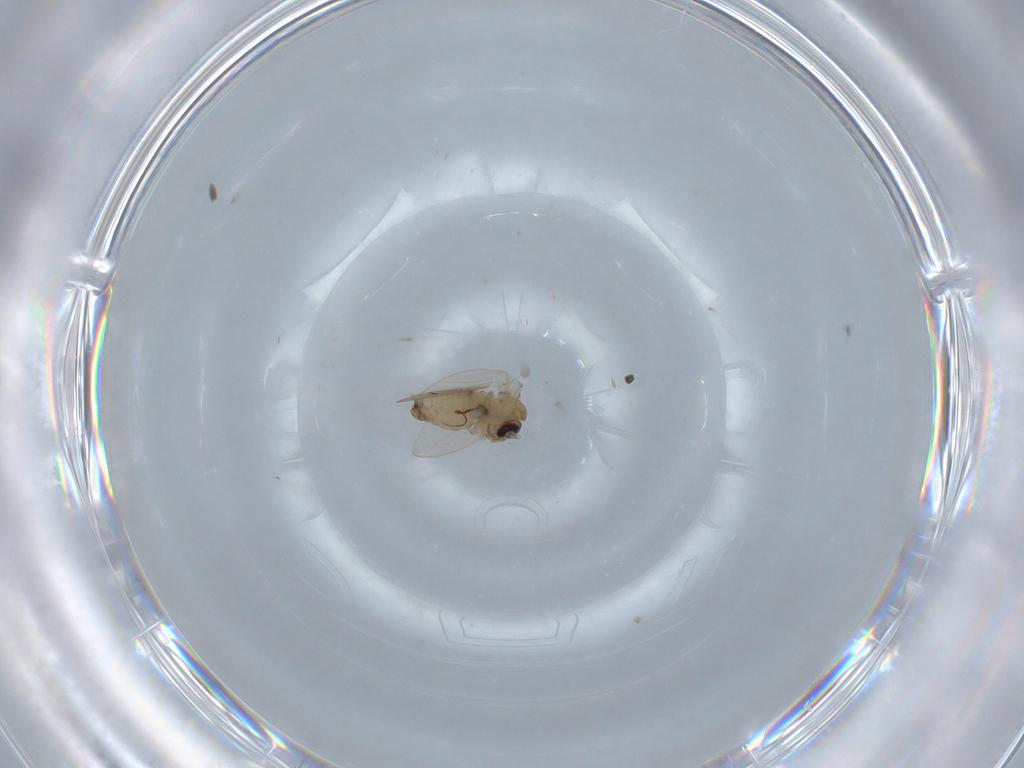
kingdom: Animalia
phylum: Arthropoda
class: Insecta
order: Diptera
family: Psychodidae
